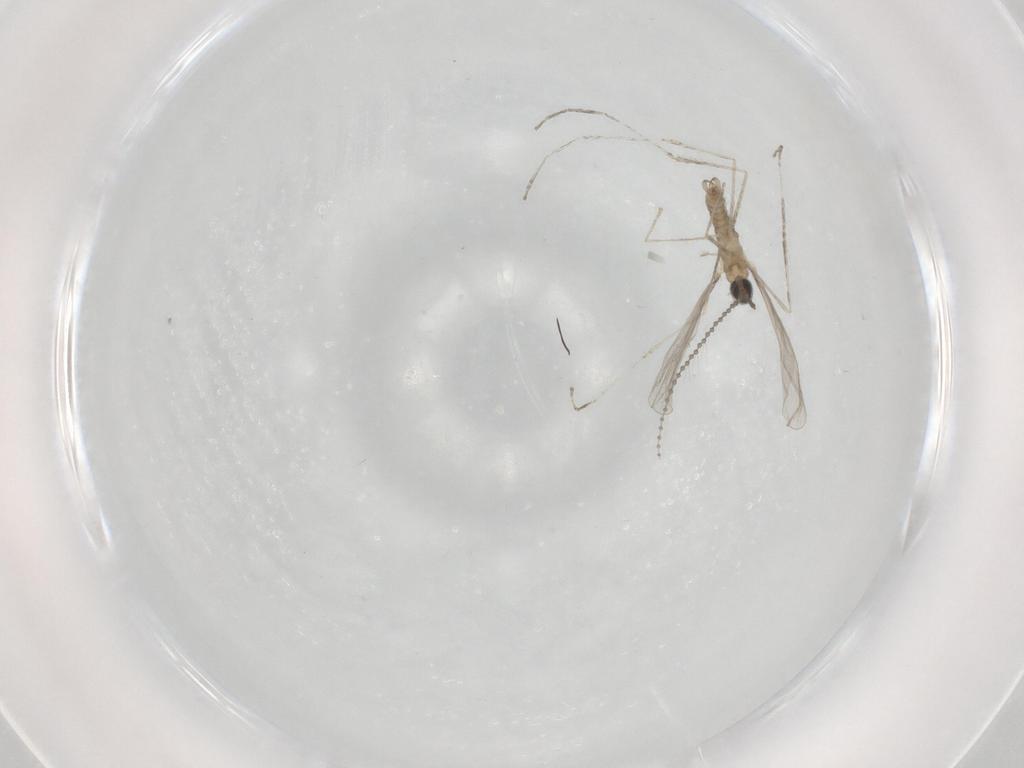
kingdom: Animalia
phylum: Arthropoda
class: Insecta
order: Diptera
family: Cecidomyiidae
